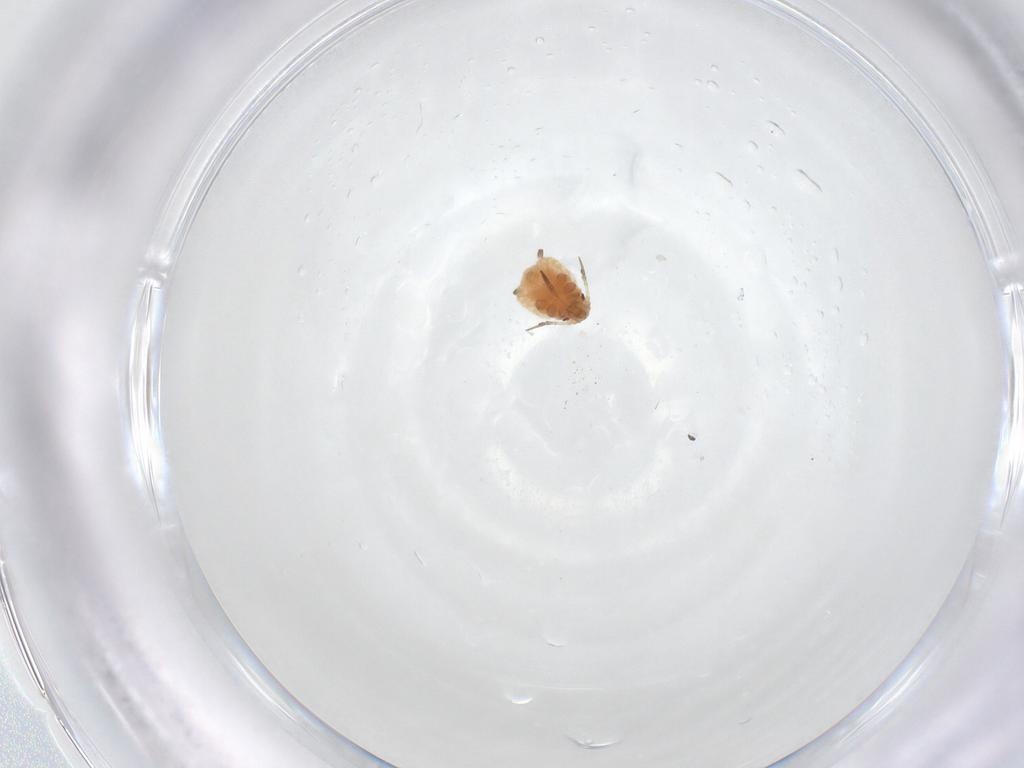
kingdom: Animalia
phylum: Arthropoda
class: Insecta
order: Hemiptera
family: Aphididae
